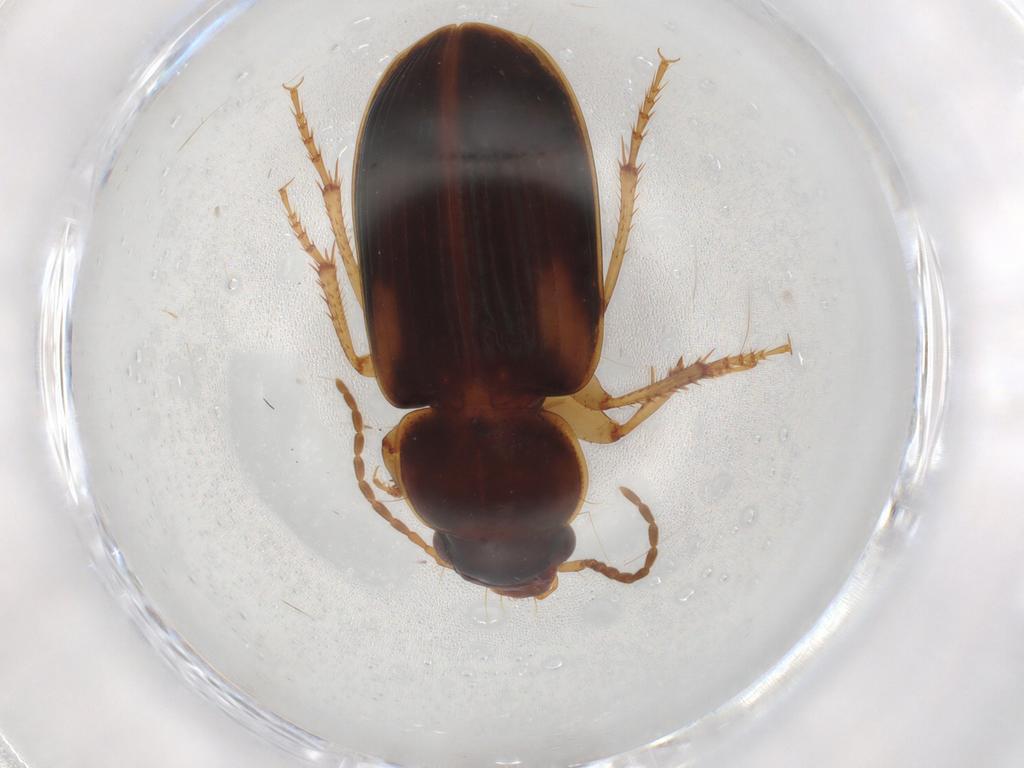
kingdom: Animalia
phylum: Arthropoda
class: Insecta
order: Coleoptera
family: Carabidae
